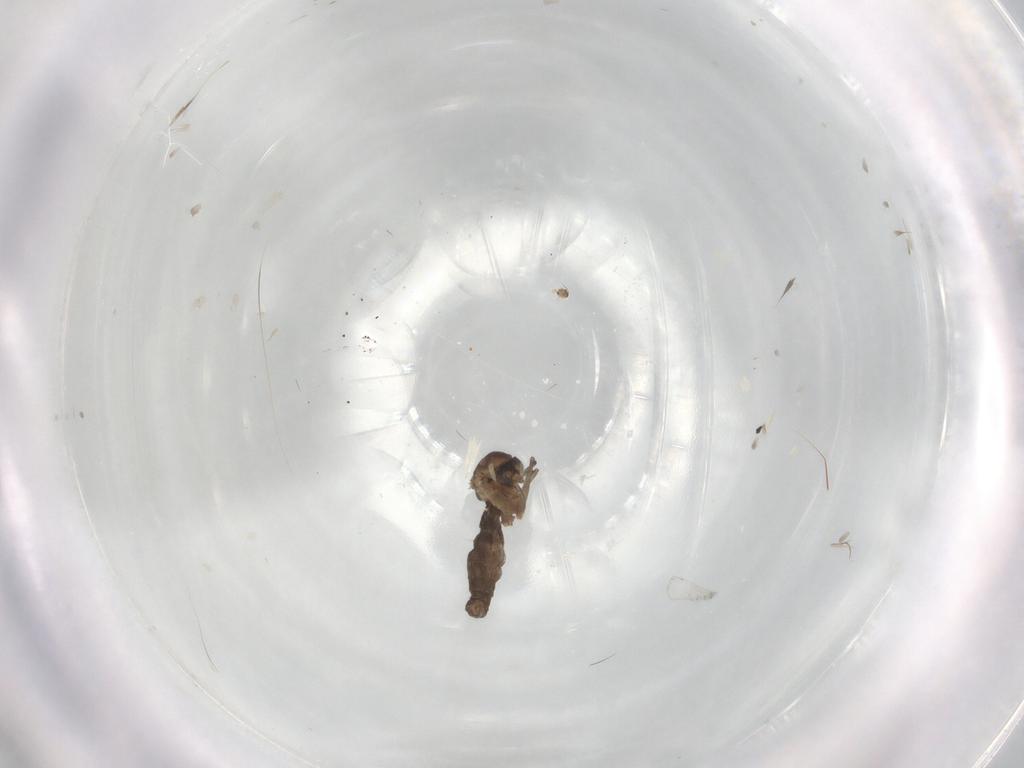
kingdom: Animalia
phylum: Arthropoda
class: Insecta
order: Diptera
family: Chironomidae
